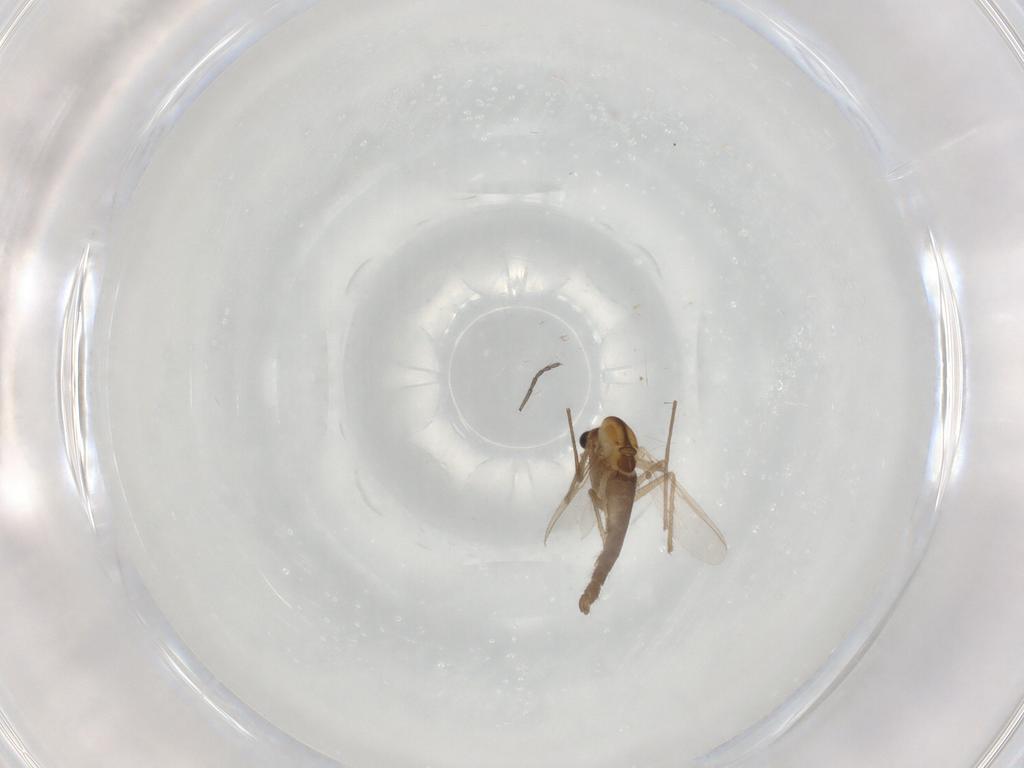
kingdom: Animalia
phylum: Arthropoda
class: Insecta
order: Diptera
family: Chironomidae
